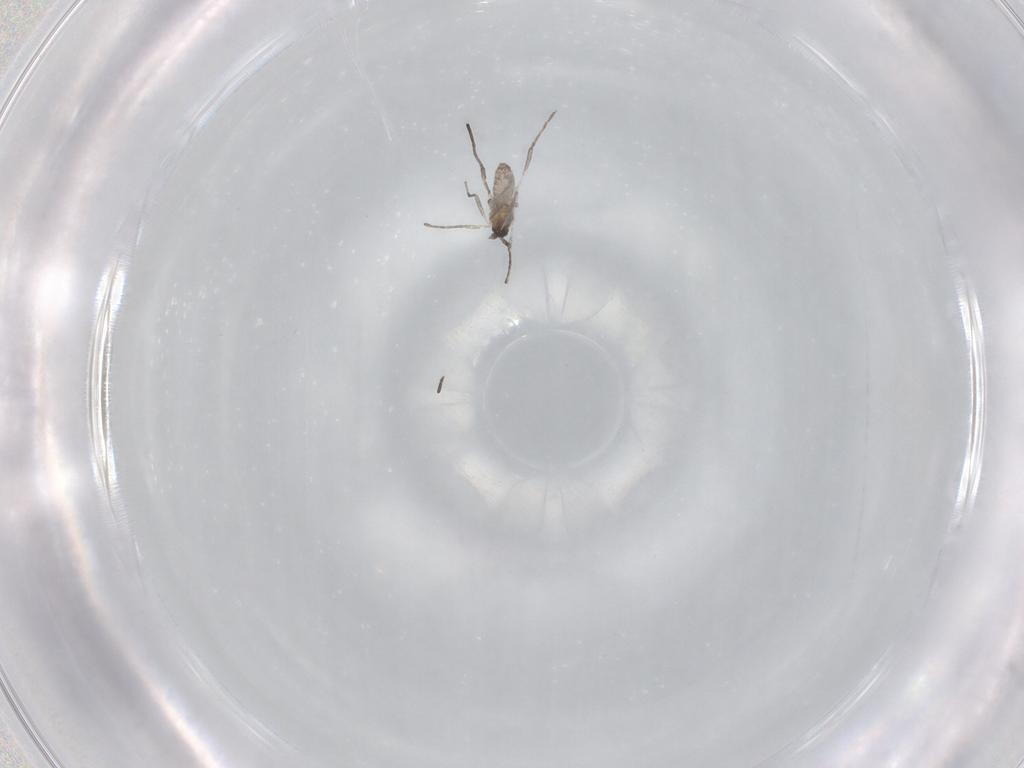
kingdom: Animalia
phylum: Arthropoda
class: Insecta
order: Diptera
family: Cecidomyiidae
